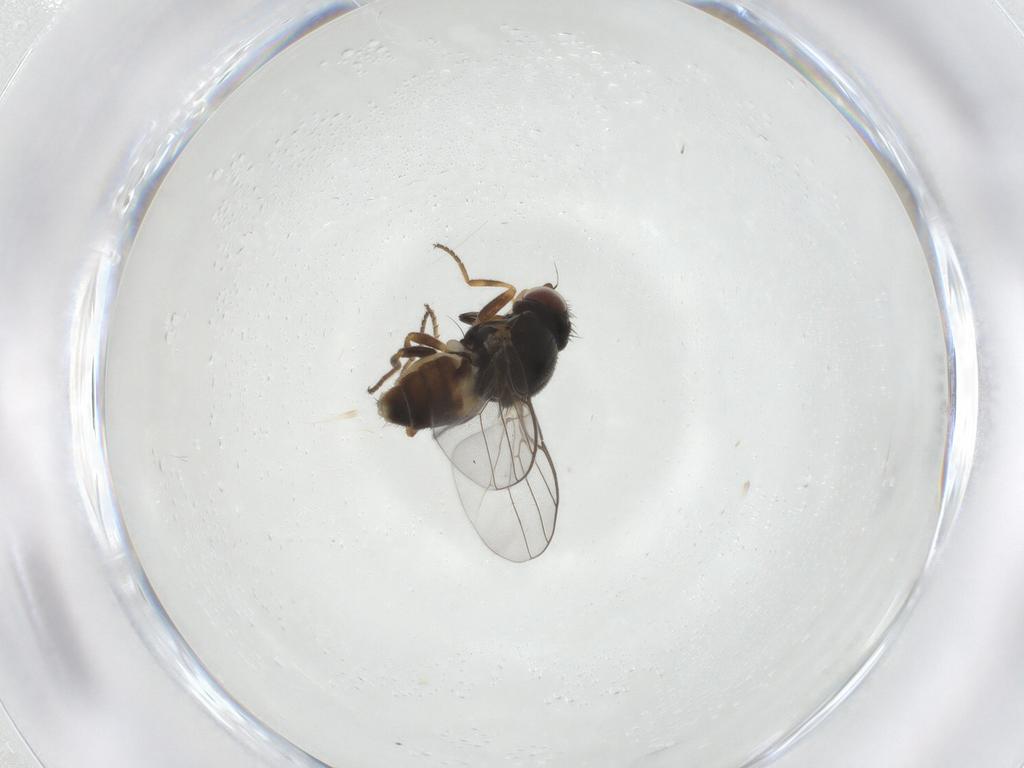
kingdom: Animalia
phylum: Arthropoda
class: Insecta
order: Diptera
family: Chloropidae
